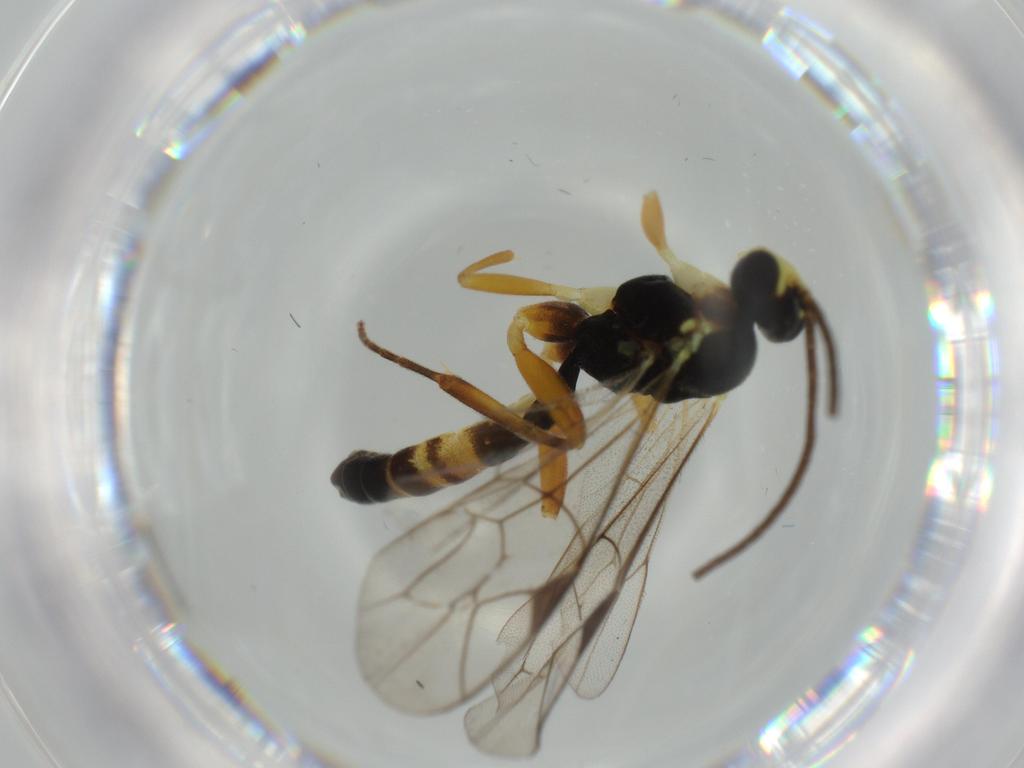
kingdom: Animalia
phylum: Arthropoda
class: Insecta
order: Hymenoptera
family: Ichneumonidae
